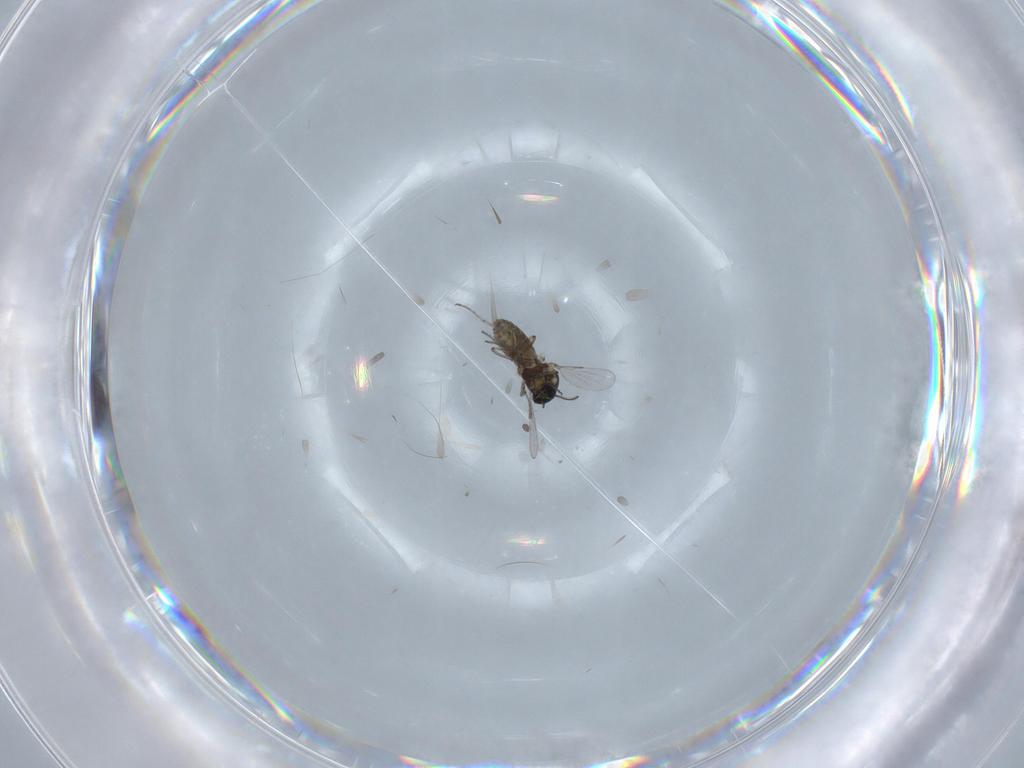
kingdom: Animalia
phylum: Arthropoda
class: Insecta
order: Diptera
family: Ceratopogonidae
